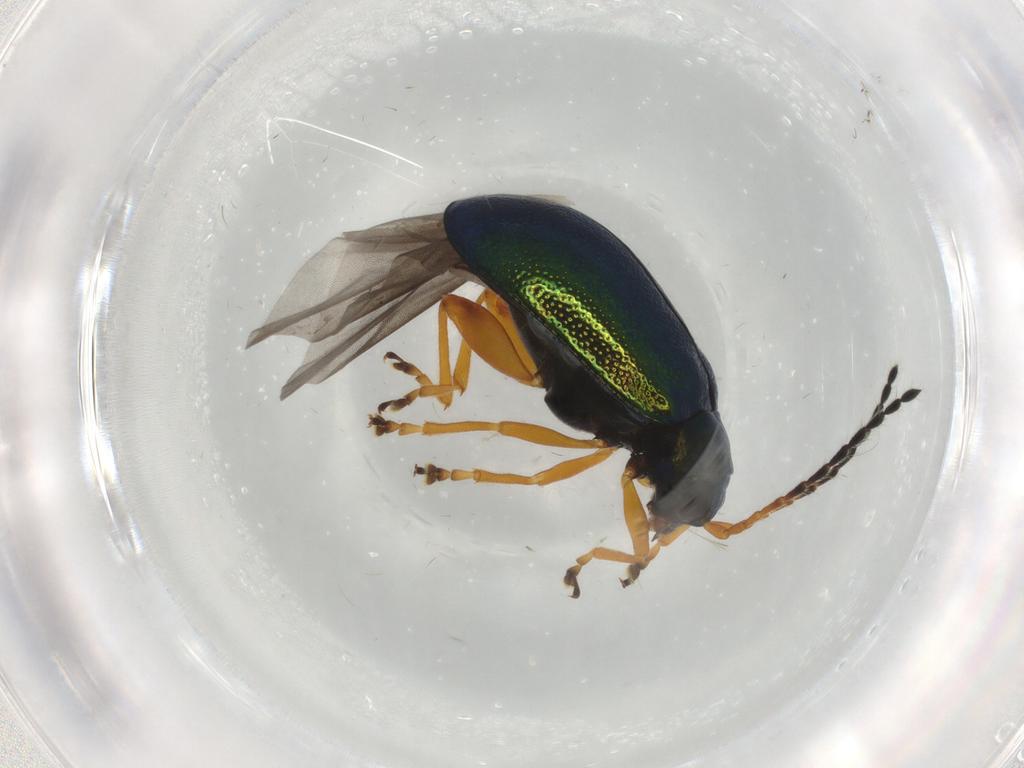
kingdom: Animalia
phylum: Arthropoda
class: Insecta
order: Coleoptera
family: Chrysomelidae
